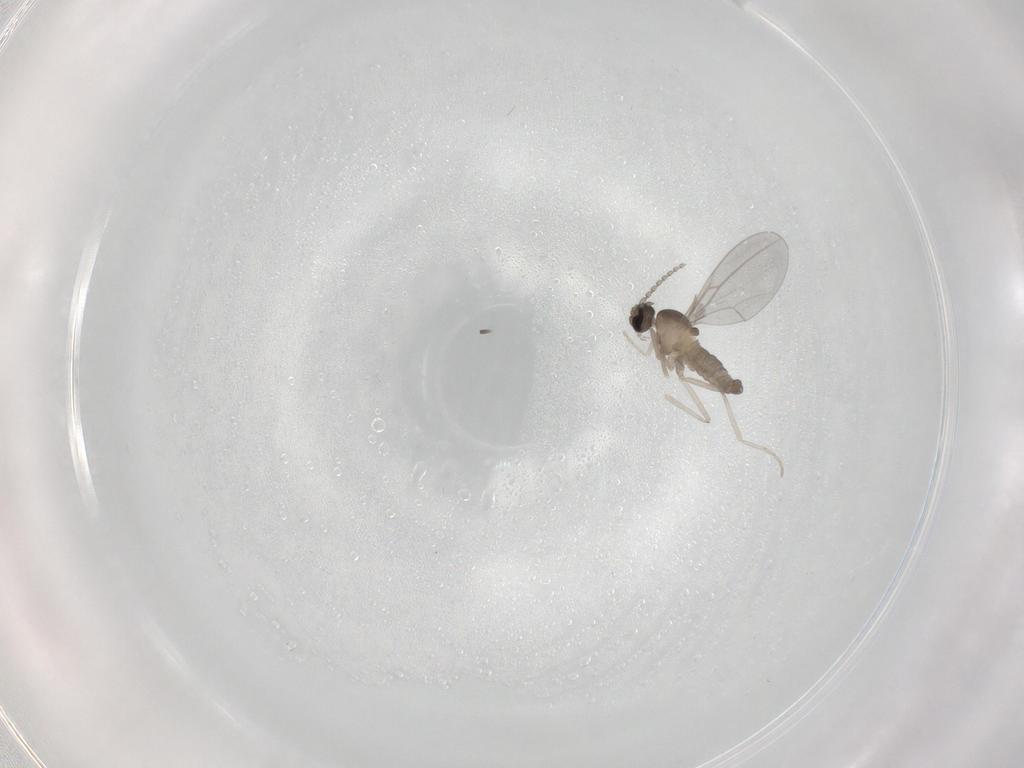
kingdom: Animalia
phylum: Arthropoda
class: Insecta
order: Diptera
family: Cecidomyiidae
